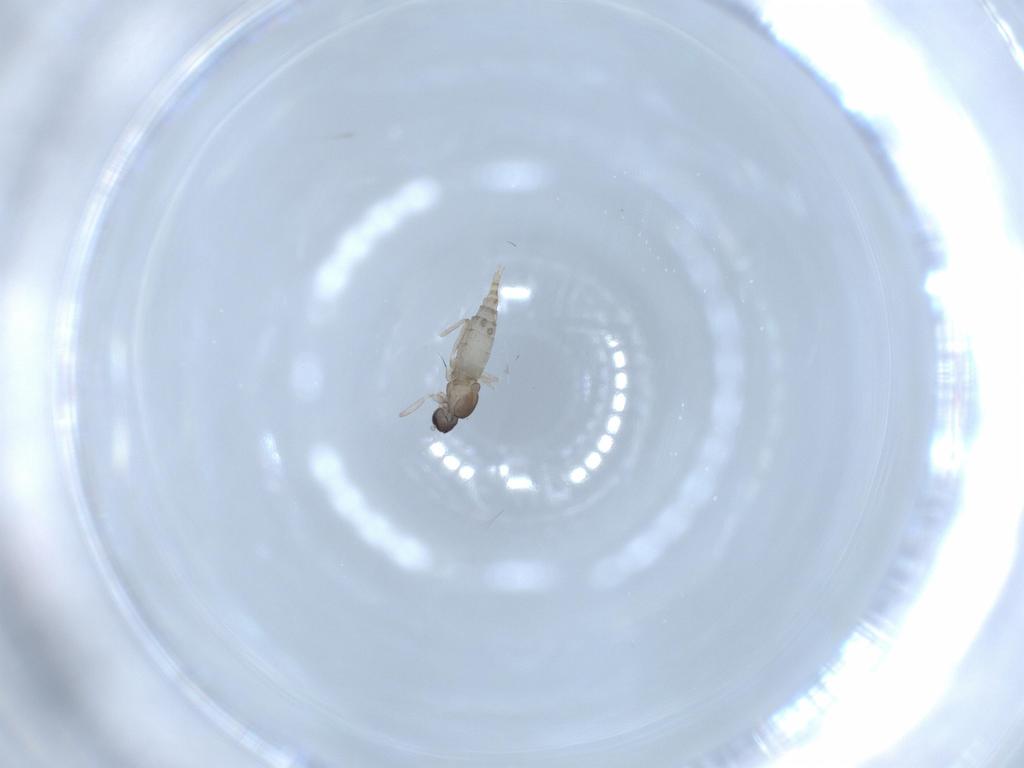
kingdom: Animalia
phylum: Arthropoda
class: Insecta
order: Diptera
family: Cecidomyiidae
